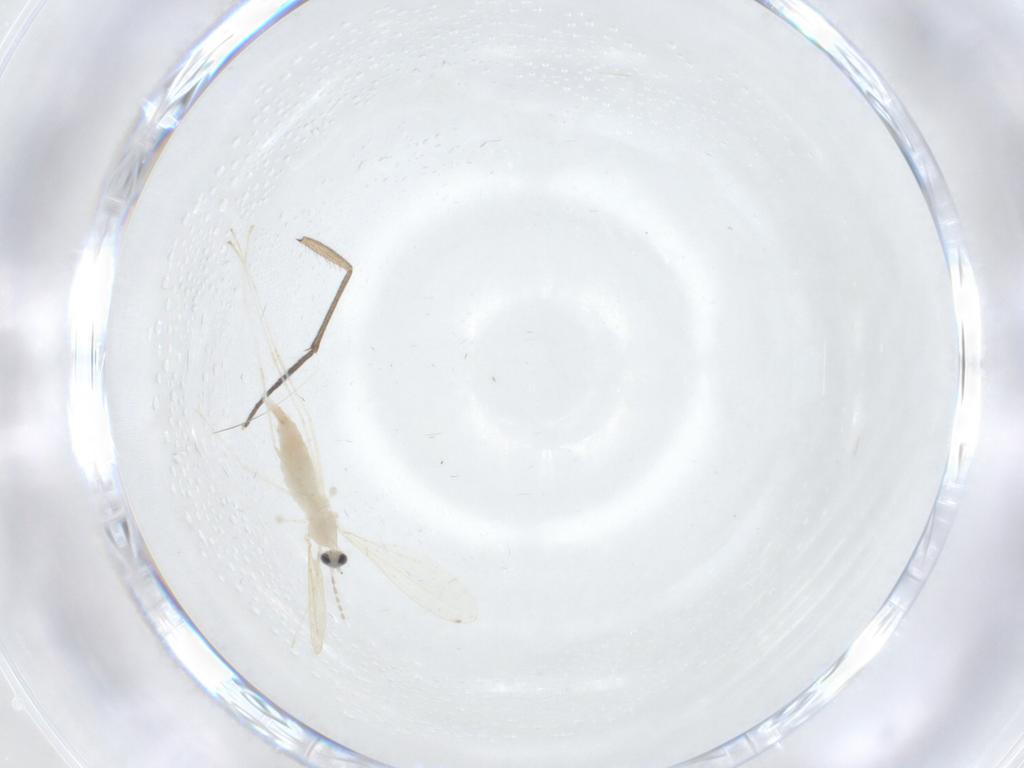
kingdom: Animalia
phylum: Arthropoda
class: Insecta
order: Diptera
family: Cecidomyiidae
